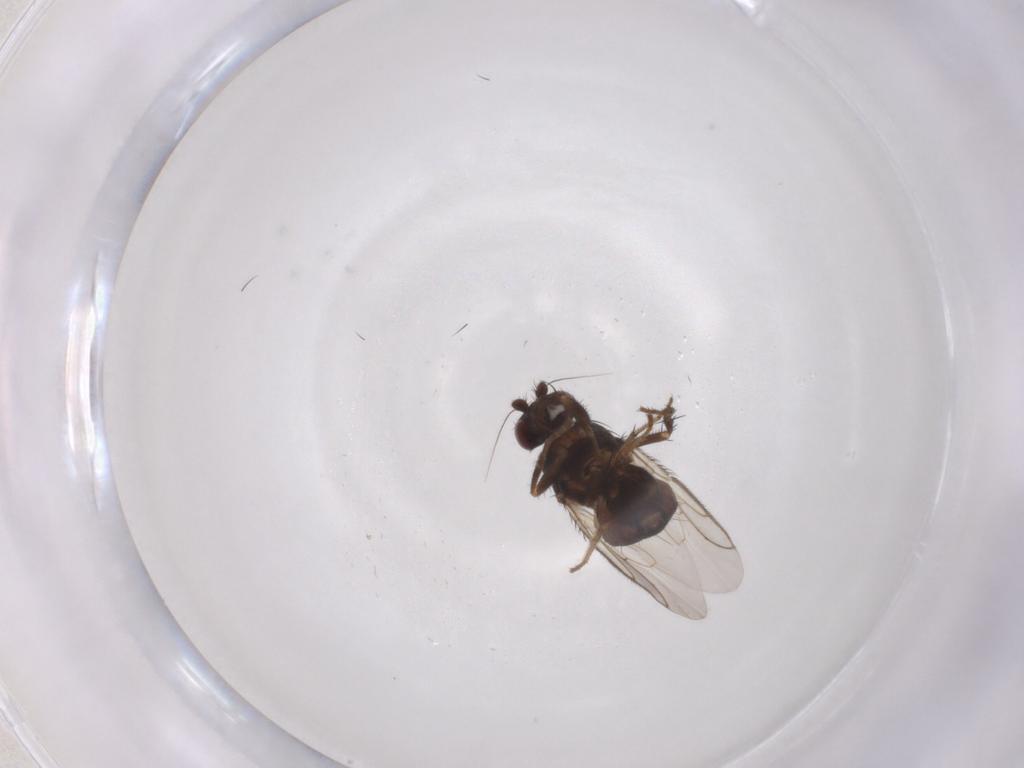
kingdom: Animalia
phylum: Arthropoda
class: Insecta
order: Diptera
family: Sphaeroceridae
